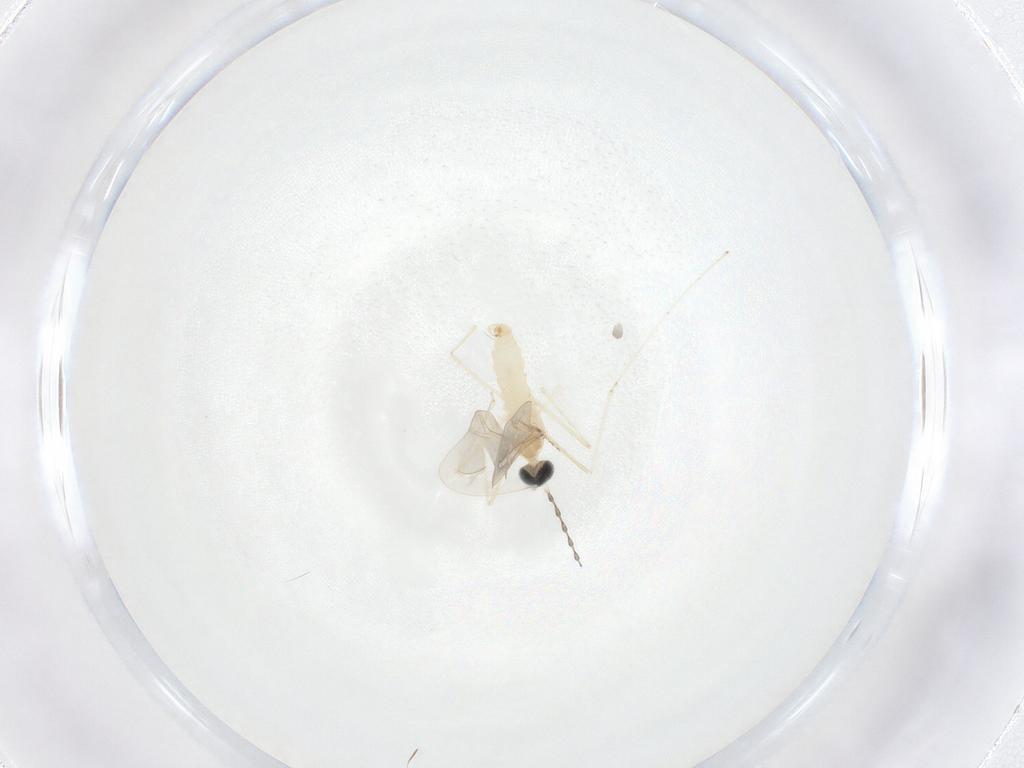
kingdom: Animalia
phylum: Arthropoda
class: Insecta
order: Diptera
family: Cecidomyiidae
